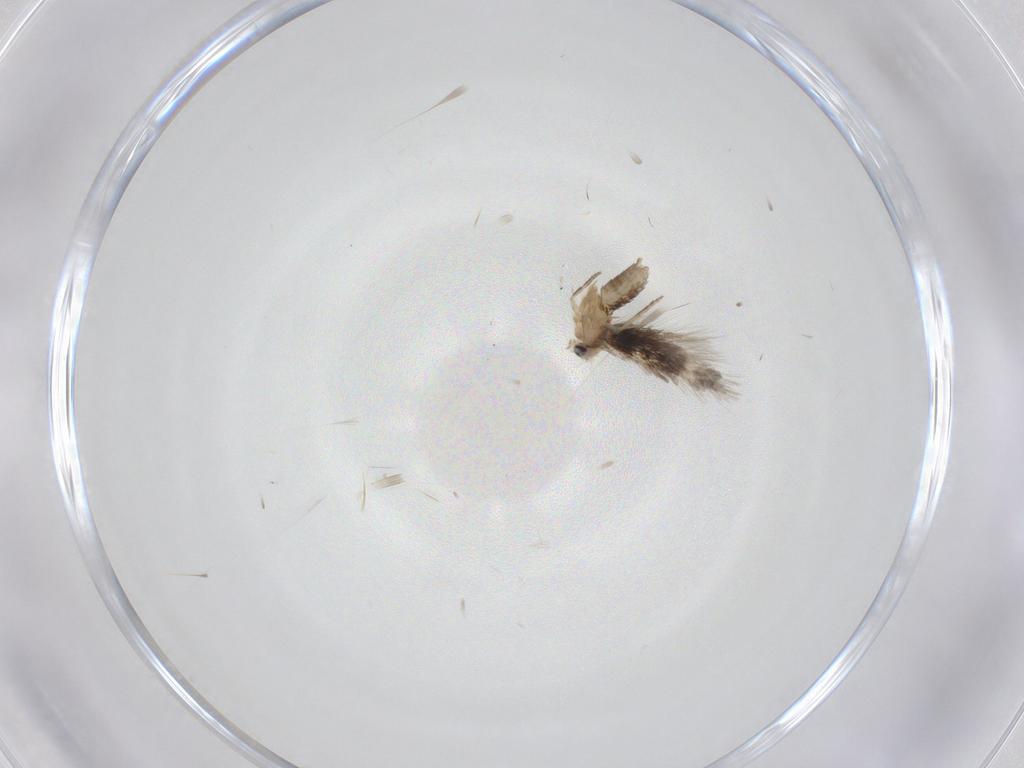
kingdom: Animalia
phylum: Arthropoda
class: Insecta
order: Lepidoptera
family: Nepticulidae
